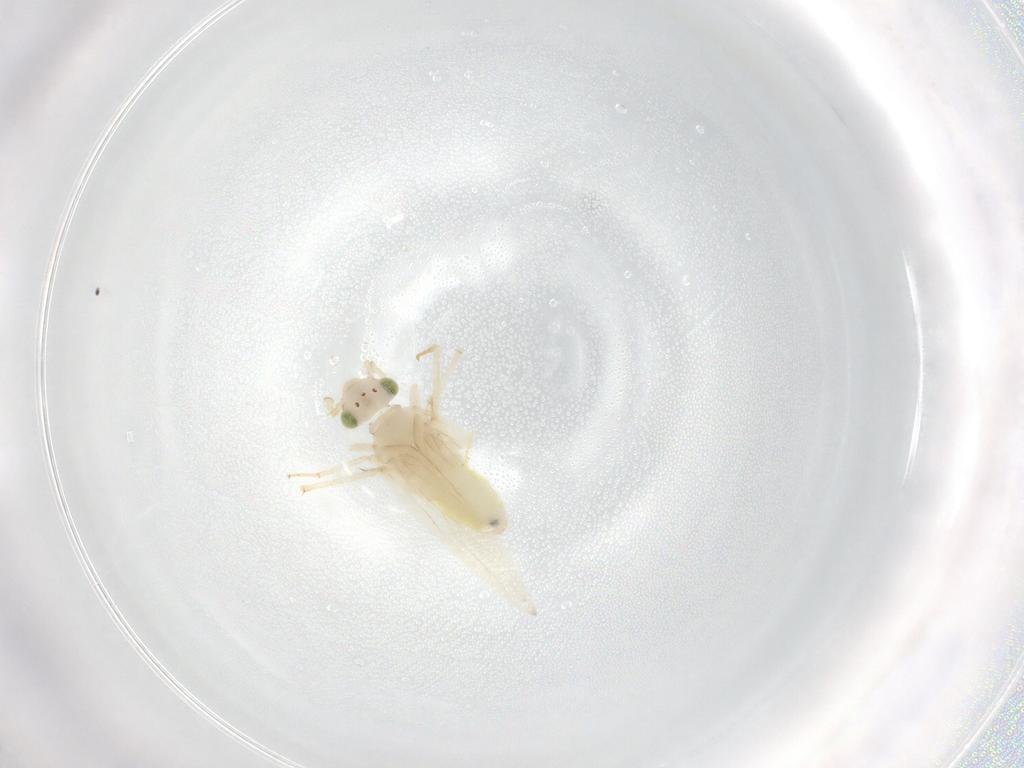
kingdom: Animalia
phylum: Arthropoda
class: Insecta
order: Psocodea
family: Lepidopsocidae
